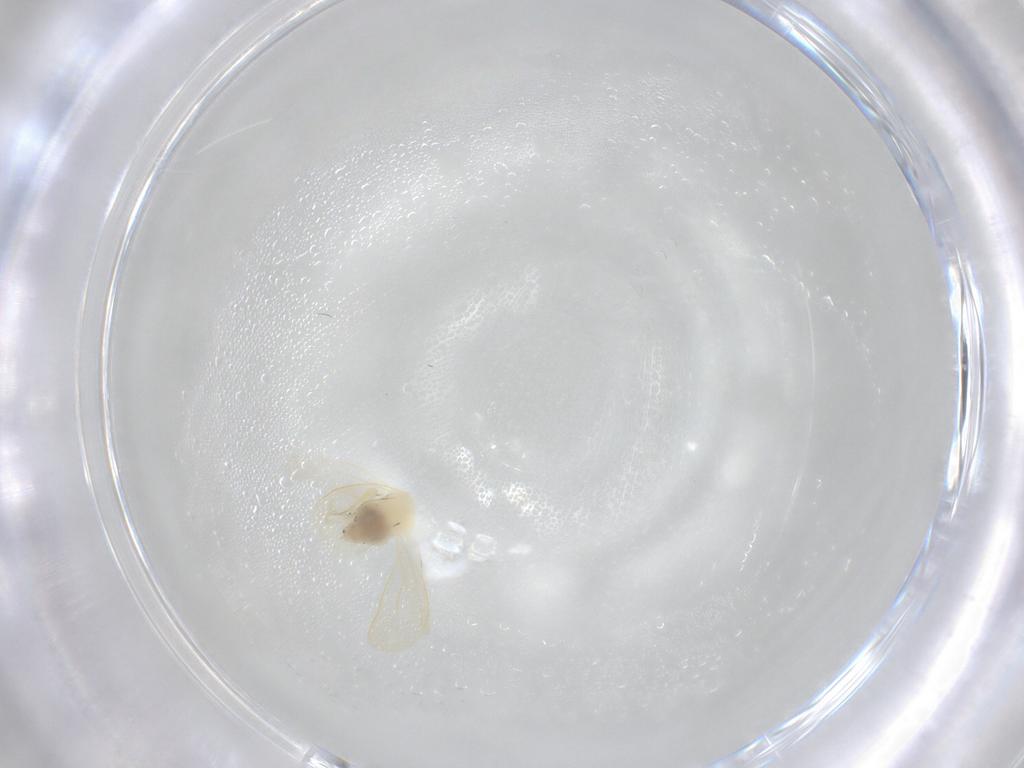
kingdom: Animalia
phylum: Arthropoda
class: Insecta
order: Hemiptera
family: Aleyrodidae
